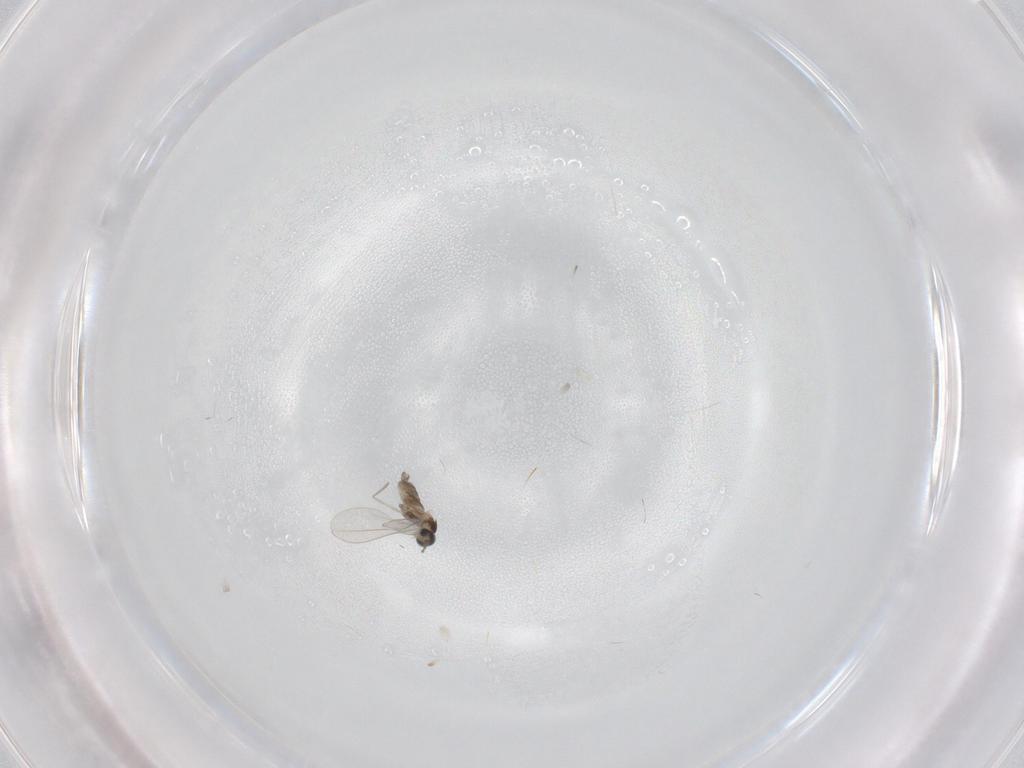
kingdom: Animalia
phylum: Arthropoda
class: Insecta
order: Diptera
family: Cecidomyiidae
